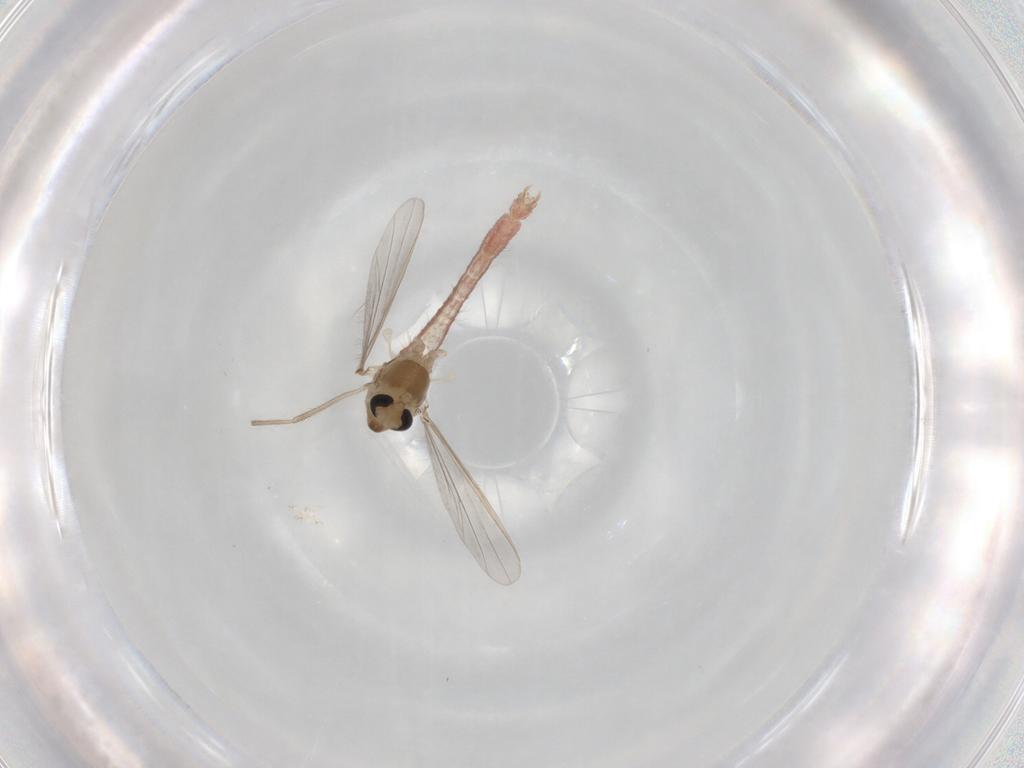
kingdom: Animalia
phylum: Arthropoda
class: Insecta
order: Diptera
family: Chironomidae
